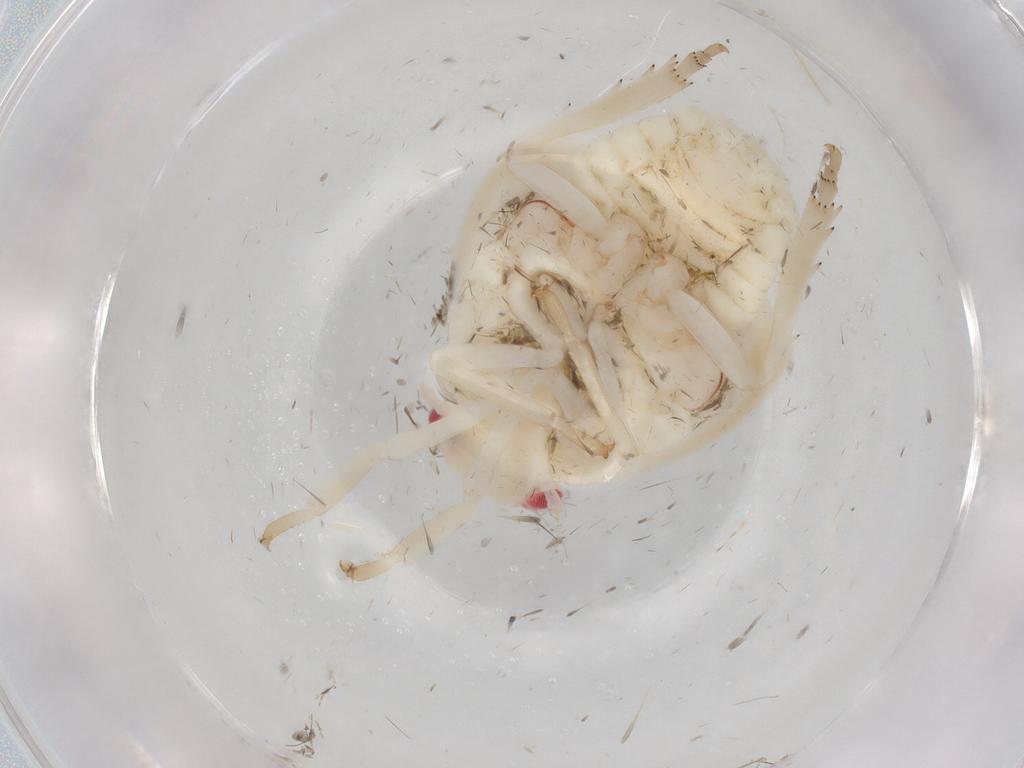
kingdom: Animalia
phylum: Arthropoda
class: Insecta
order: Hemiptera
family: Flatidae
